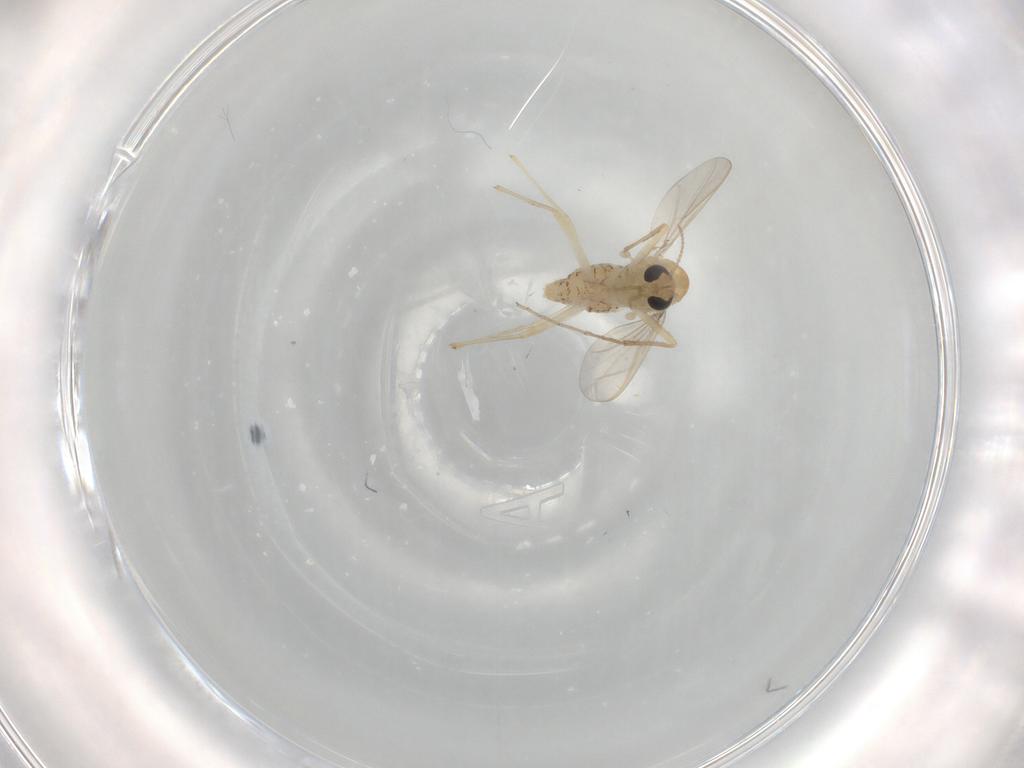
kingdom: Animalia
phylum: Arthropoda
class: Insecta
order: Diptera
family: Chironomidae
